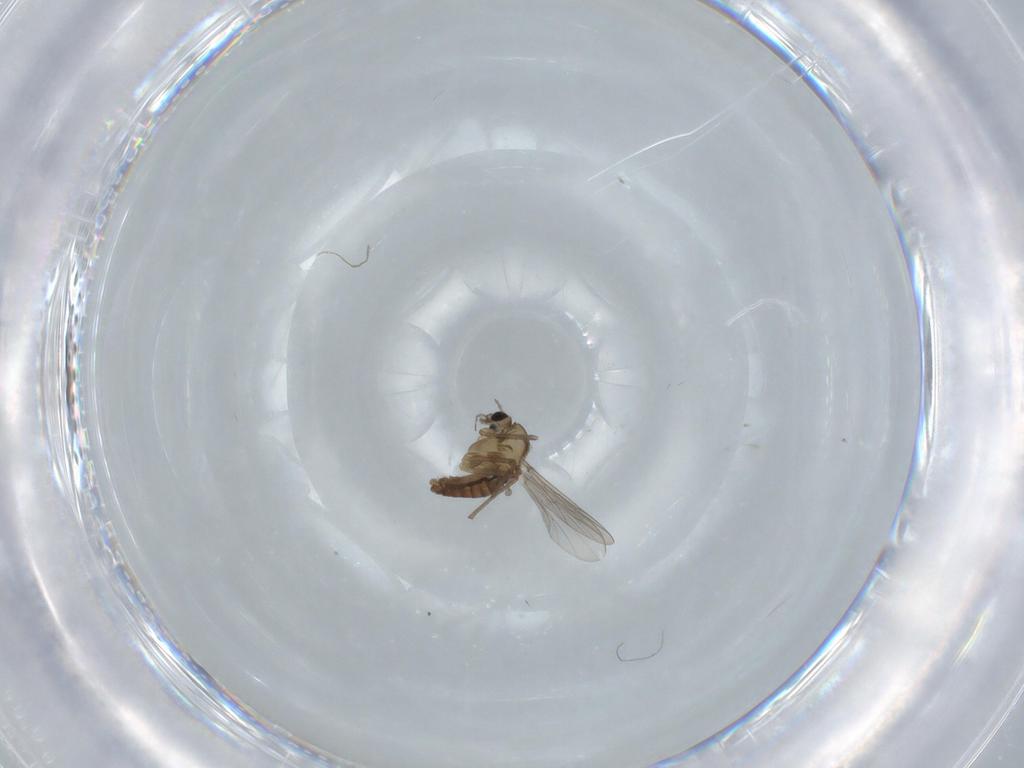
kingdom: Animalia
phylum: Arthropoda
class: Insecta
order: Diptera
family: Chironomidae
